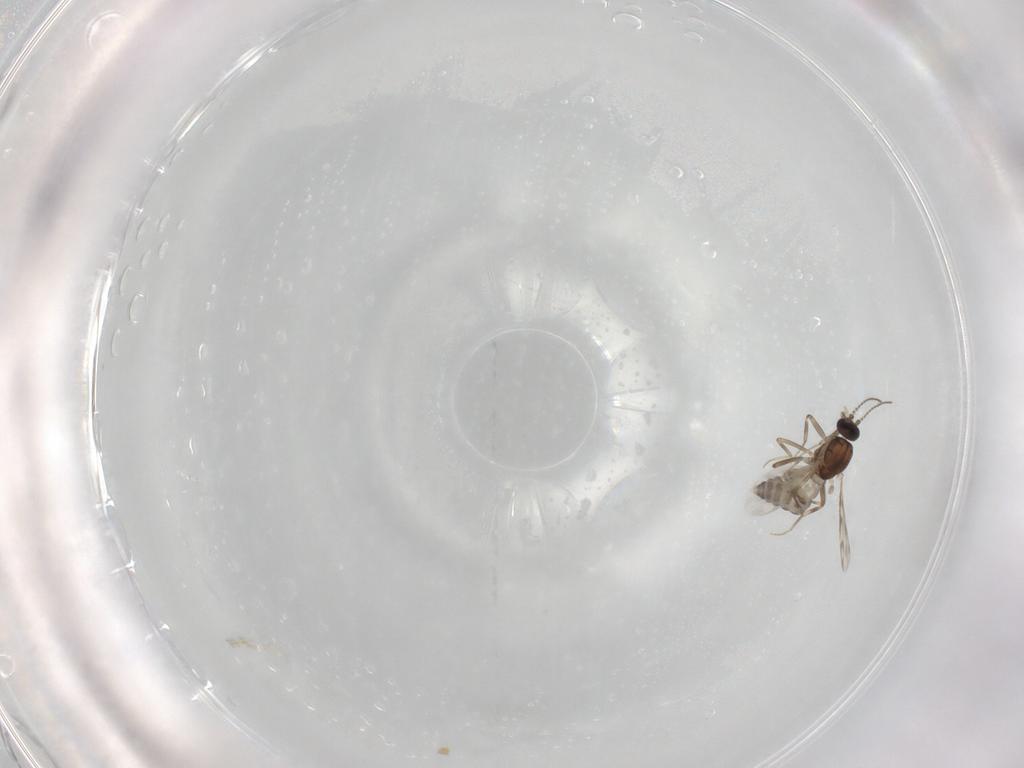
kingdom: Animalia
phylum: Arthropoda
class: Insecta
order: Diptera
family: Ceratopogonidae
